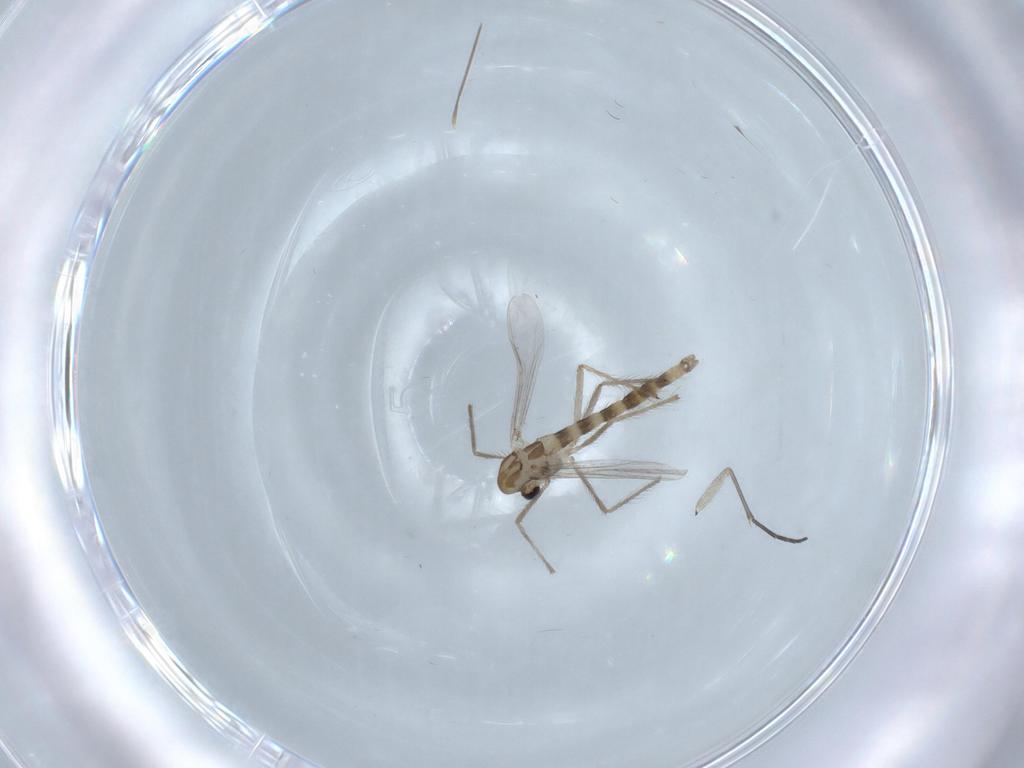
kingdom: Animalia
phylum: Arthropoda
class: Insecta
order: Diptera
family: Chironomidae
